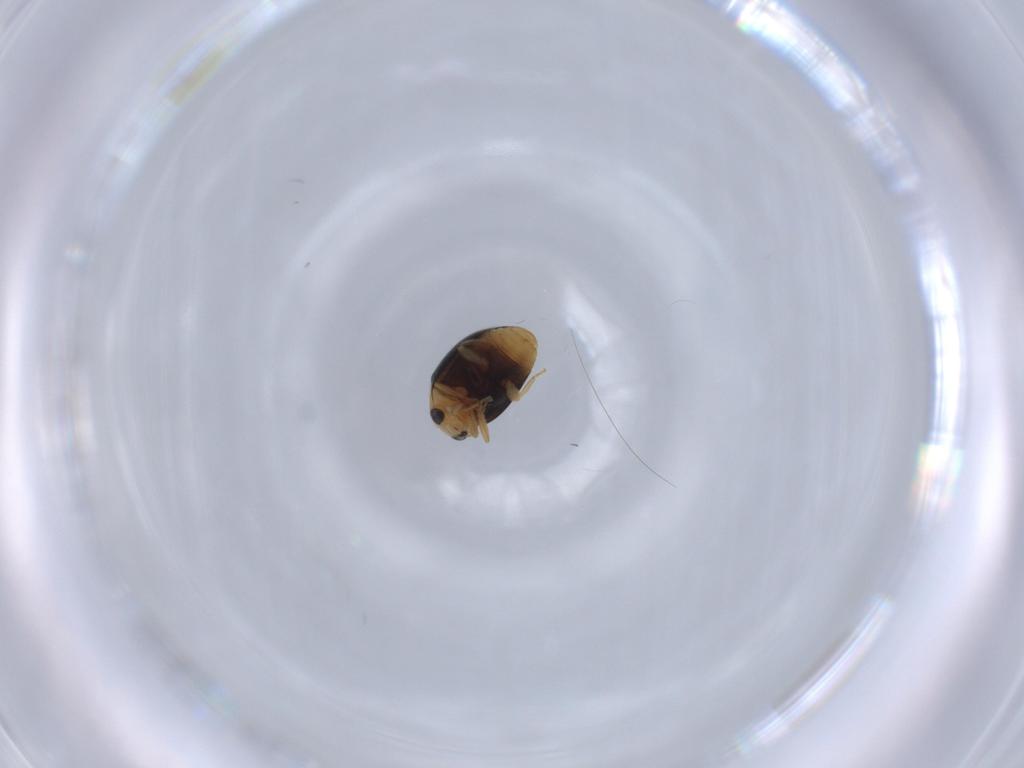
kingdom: Animalia
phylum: Arthropoda
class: Insecta
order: Coleoptera
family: Coccinellidae
